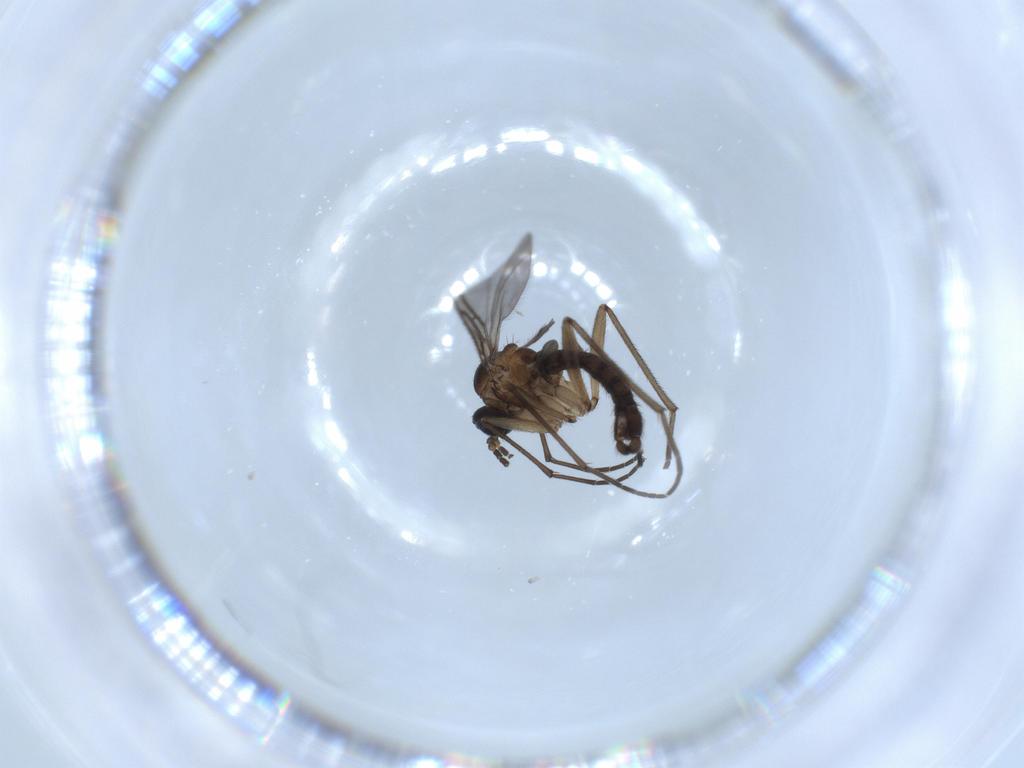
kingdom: Animalia
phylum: Arthropoda
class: Insecta
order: Diptera
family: Sciaridae
